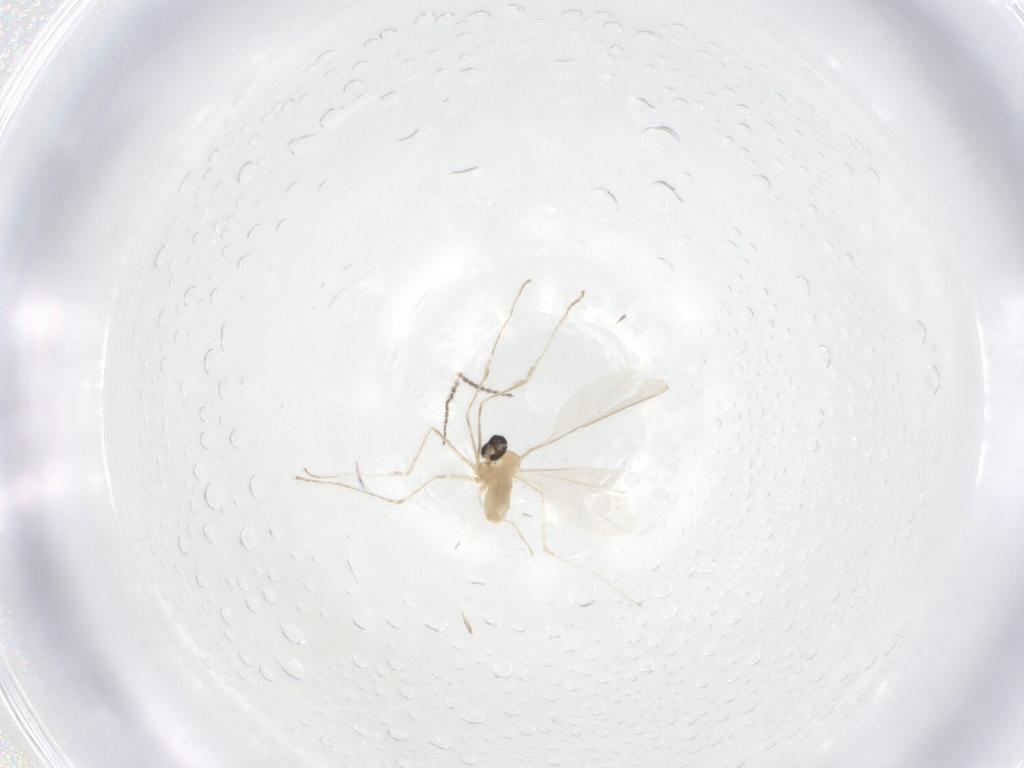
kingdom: Animalia
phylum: Arthropoda
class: Insecta
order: Diptera
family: Cecidomyiidae
